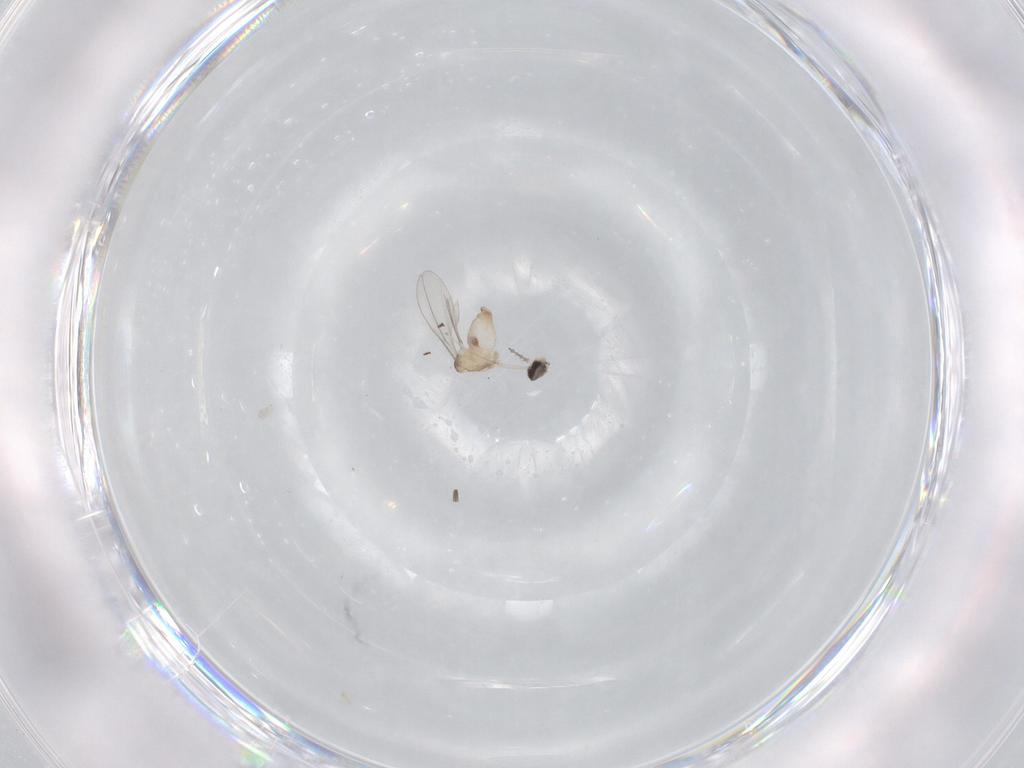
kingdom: Animalia
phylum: Arthropoda
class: Insecta
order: Diptera
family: Cecidomyiidae
